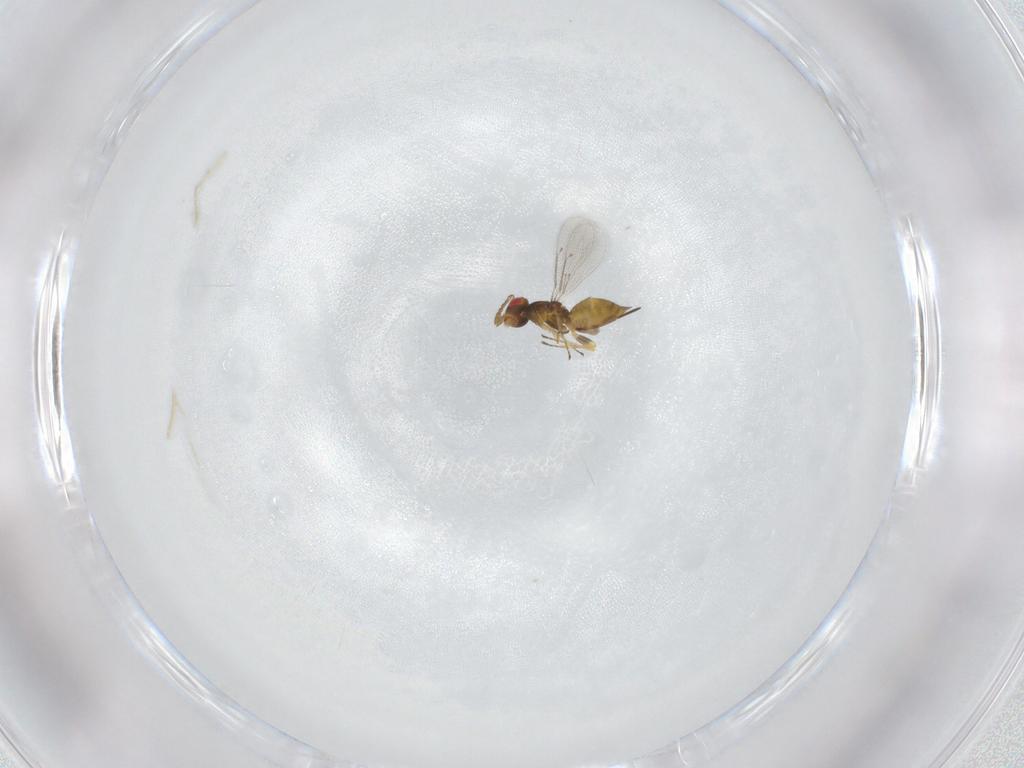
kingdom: Animalia
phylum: Arthropoda
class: Insecta
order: Hymenoptera
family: Eulophidae
